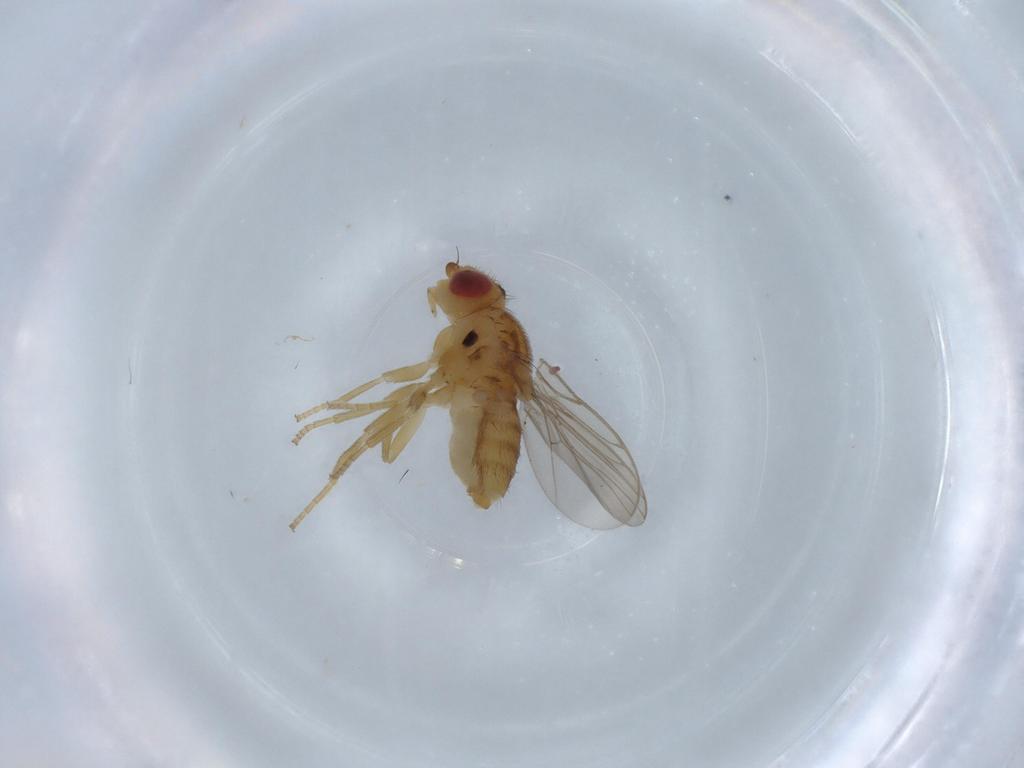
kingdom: Animalia
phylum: Arthropoda
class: Insecta
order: Diptera
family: Chloropidae
